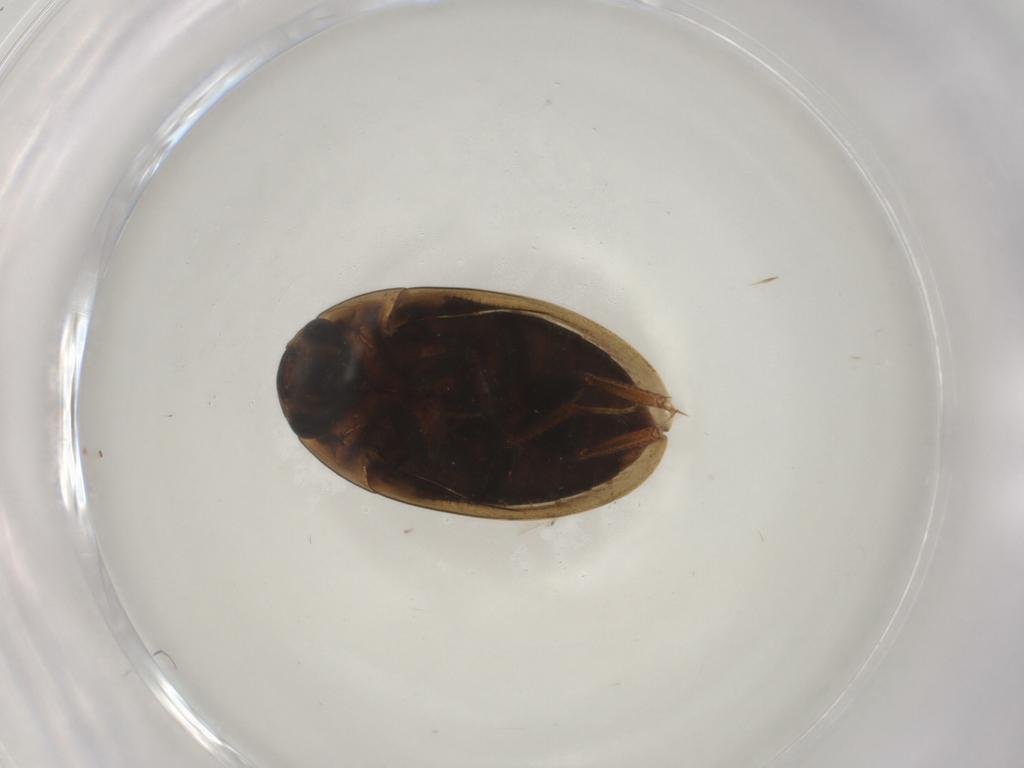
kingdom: Animalia
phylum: Arthropoda
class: Insecta
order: Coleoptera
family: Hydrophilidae
